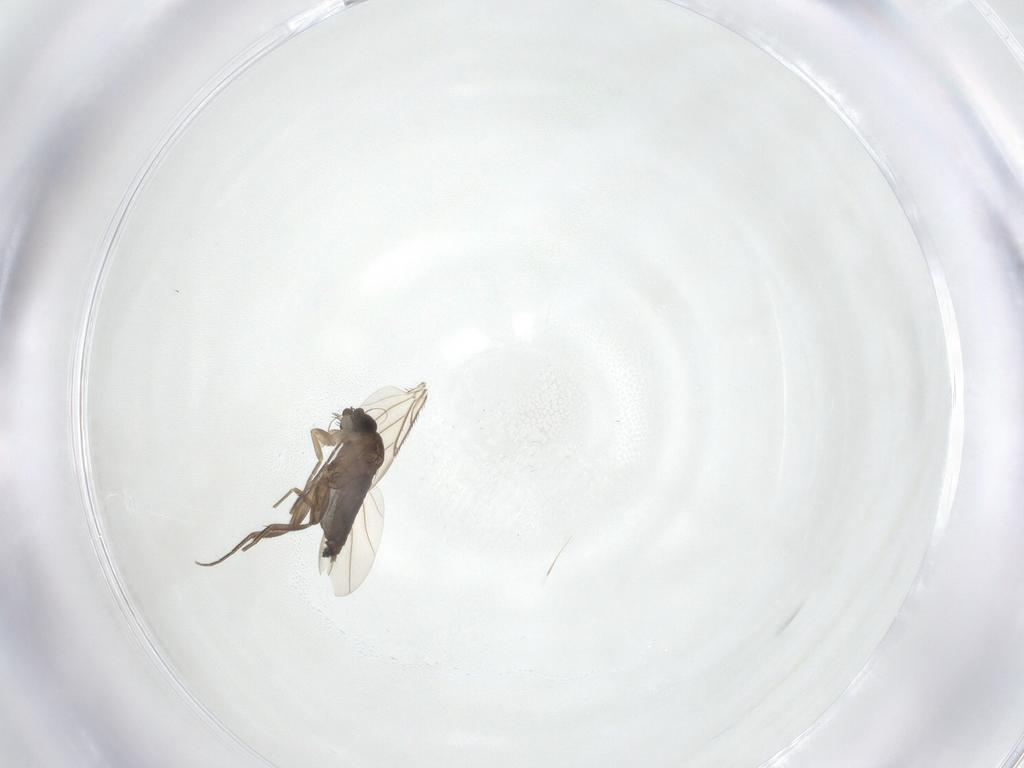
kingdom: Animalia
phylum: Arthropoda
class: Insecta
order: Diptera
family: Phoridae
